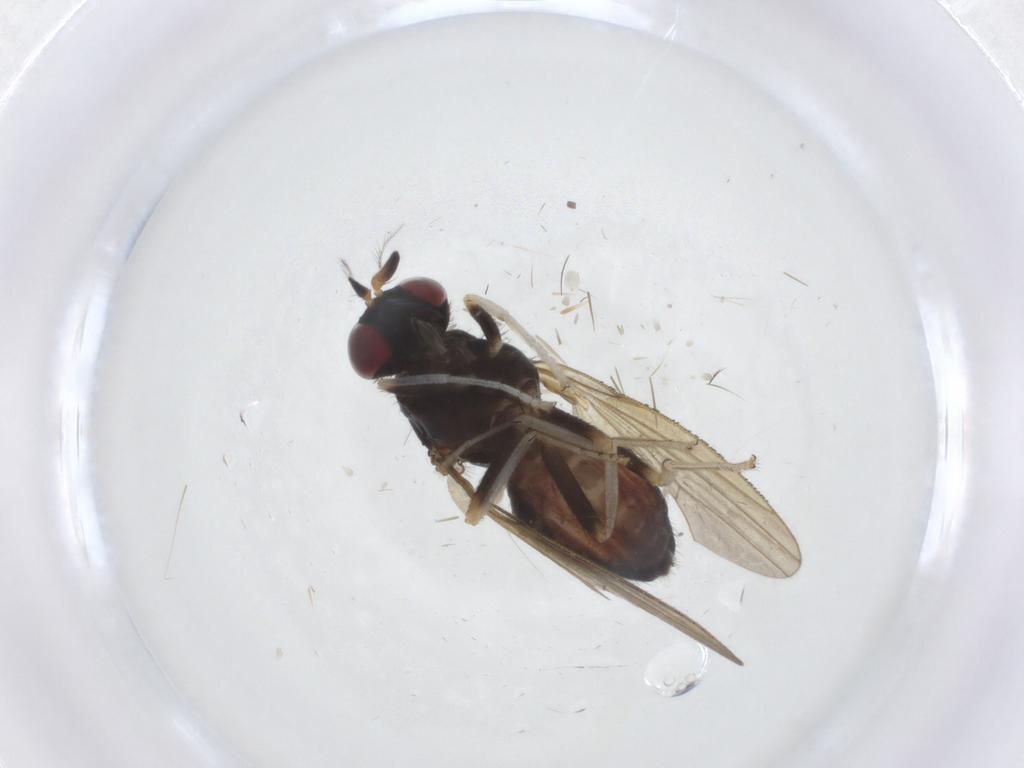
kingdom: Animalia
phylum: Arthropoda
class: Insecta
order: Diptera
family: Lauxaniidae
